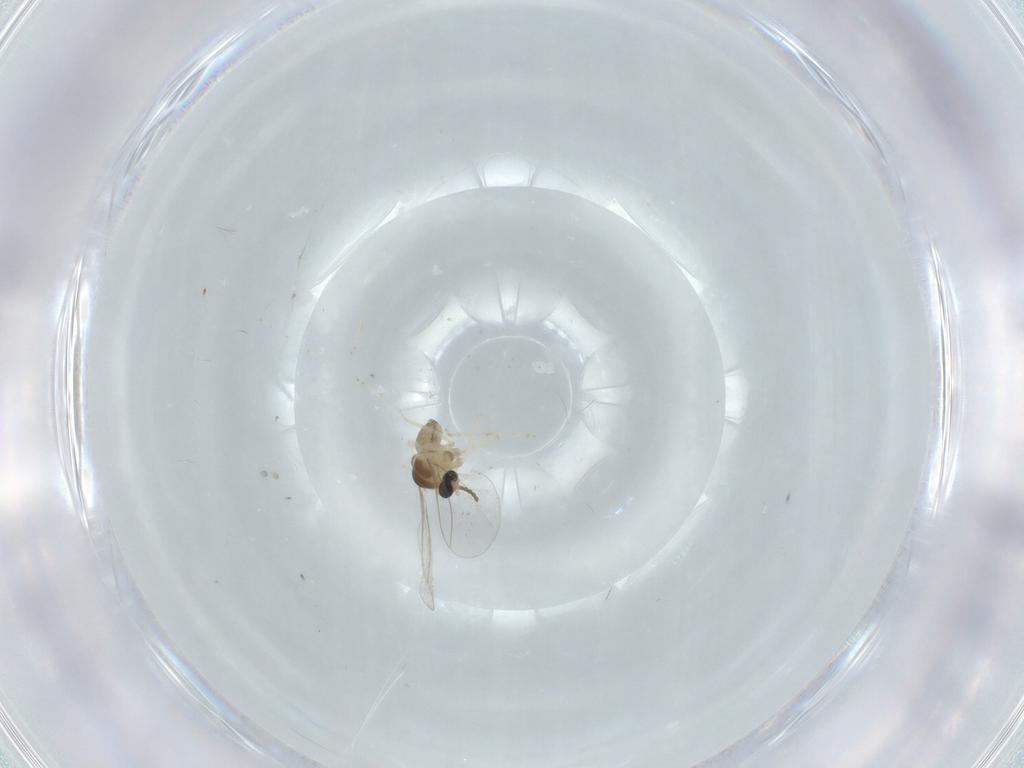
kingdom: Animalia
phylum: Arthropoda
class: Insecta
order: Diptera
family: Cecidomyiidae
